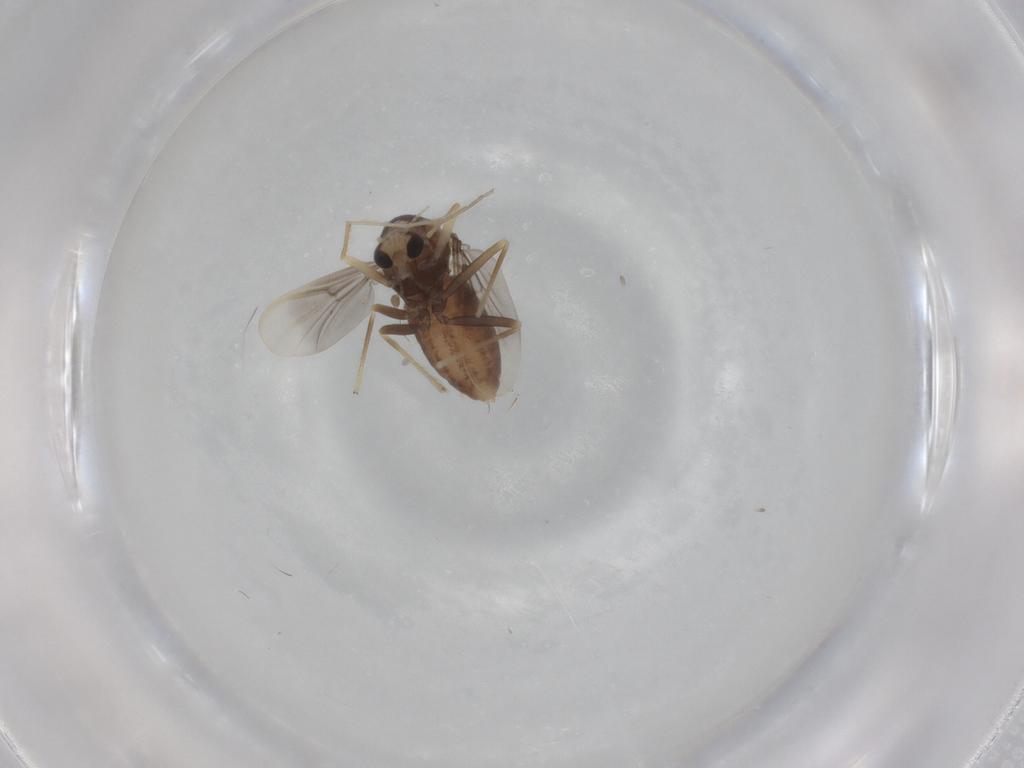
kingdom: Animalia
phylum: Arthropoda
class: Insecta
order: Diptera
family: Chironomidae
